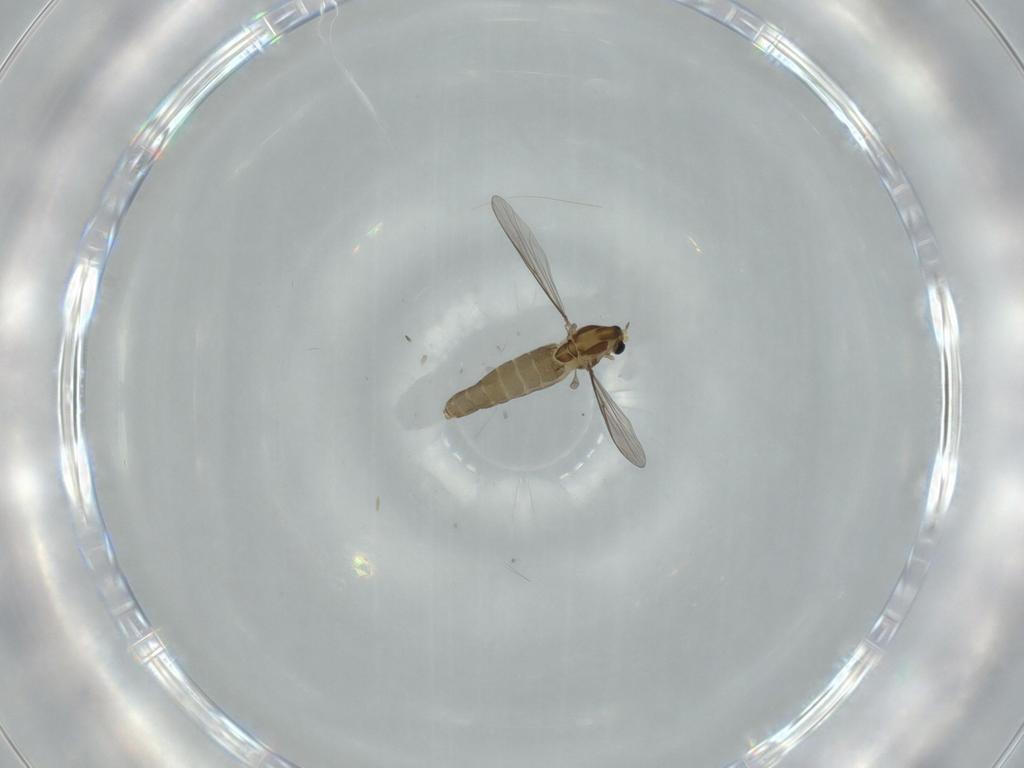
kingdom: Animalia
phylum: Arthropoda
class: Insecta
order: Diptera
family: Ceratopogonidae
